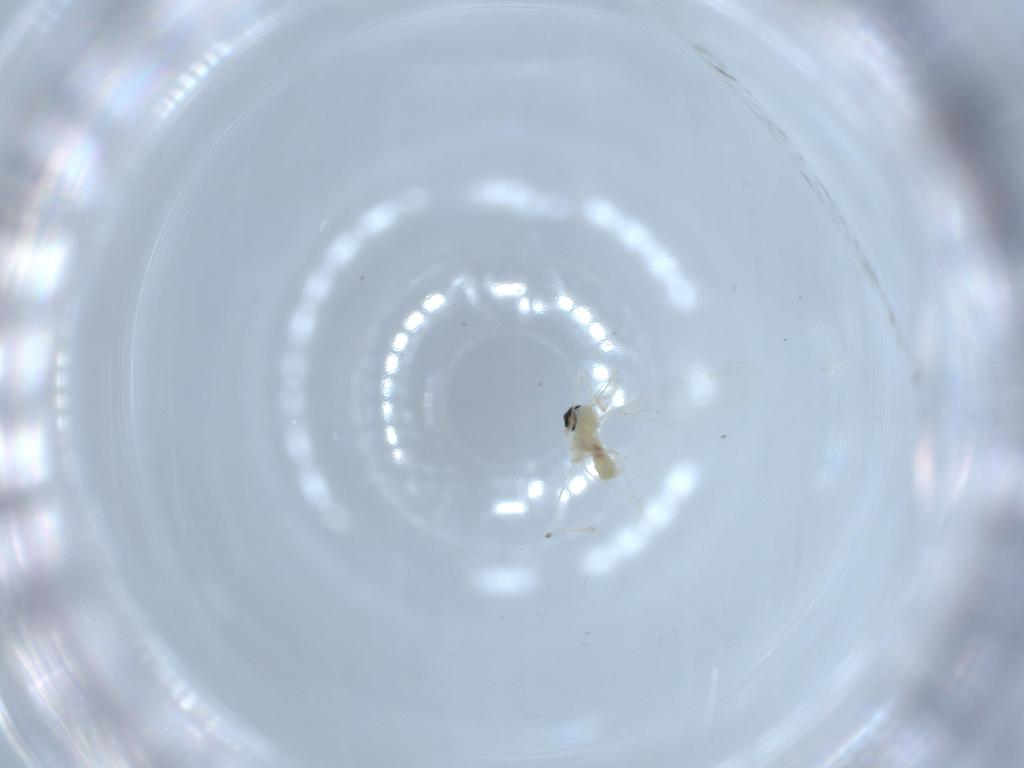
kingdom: Animalia
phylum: Arthropoda
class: Insecta
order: Diptera
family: Cecidomyiidae
